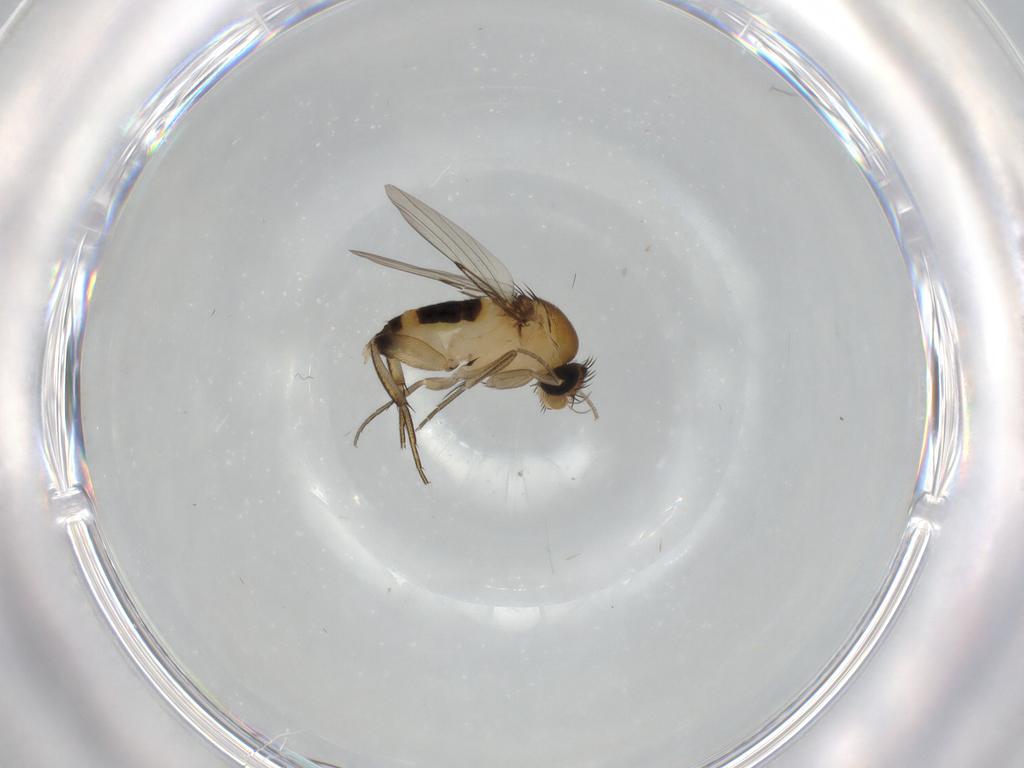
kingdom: Animalia
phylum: Arthropoda
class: Insecta
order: Diptera
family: Phoridae
